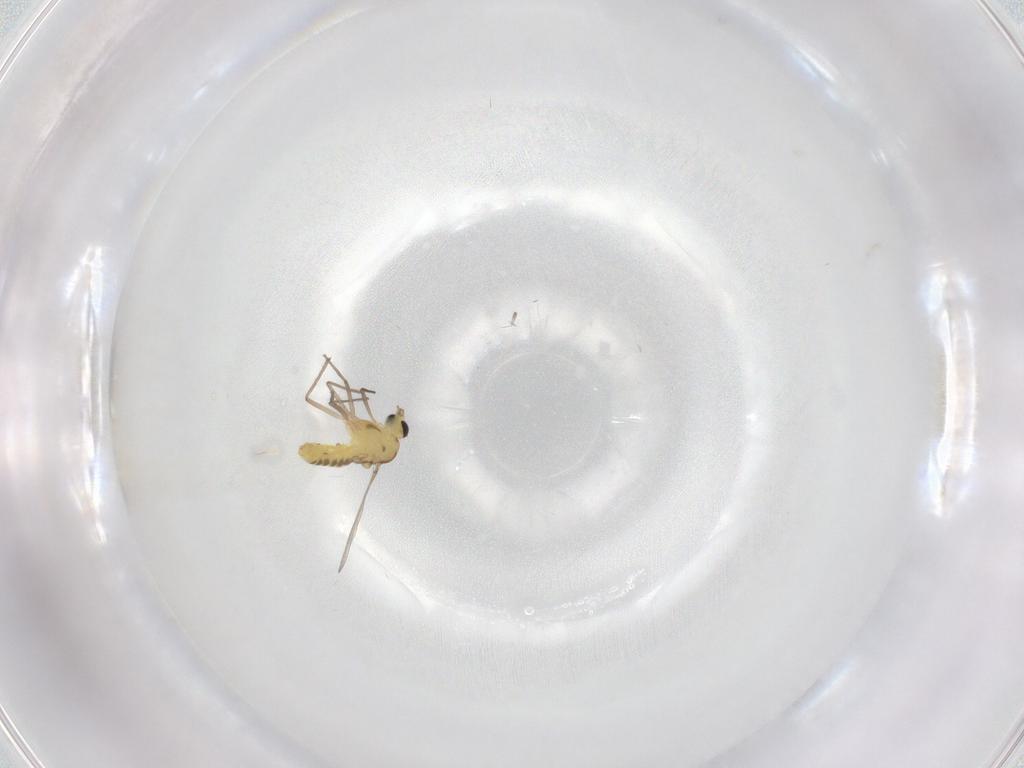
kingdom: Animalia
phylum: Arthropoda
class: Insecta
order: Diptera
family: Chironomidae
